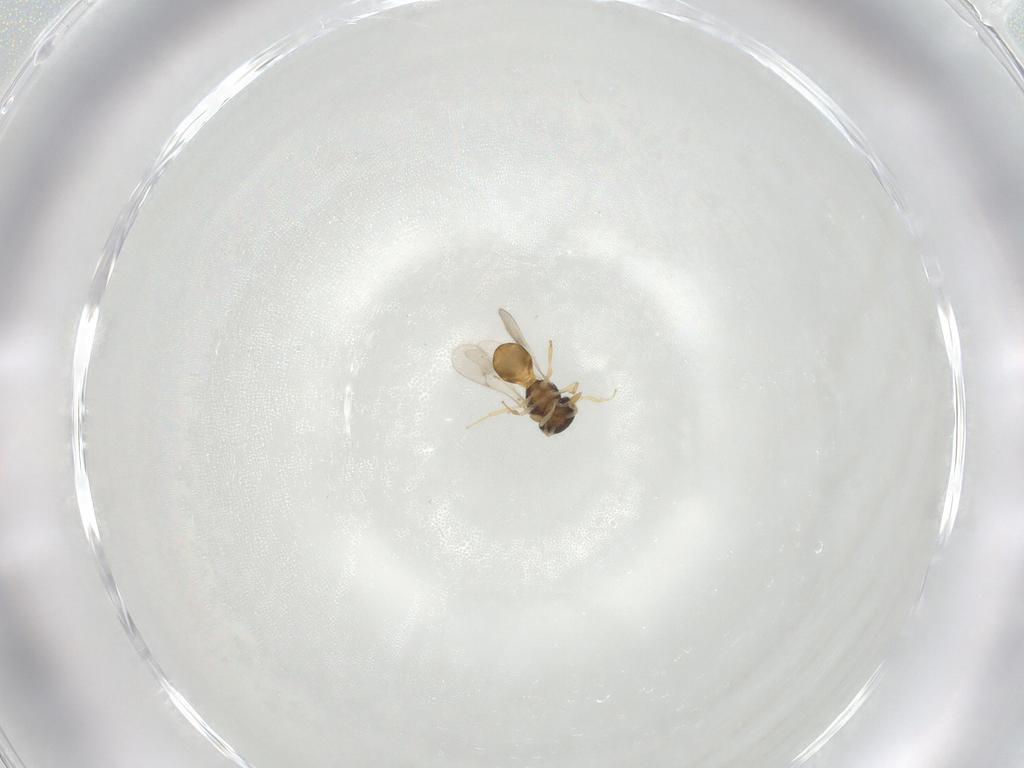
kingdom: Animalia
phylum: Arthropoda
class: Insecta
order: Hymenoptera
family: Scelionidae
